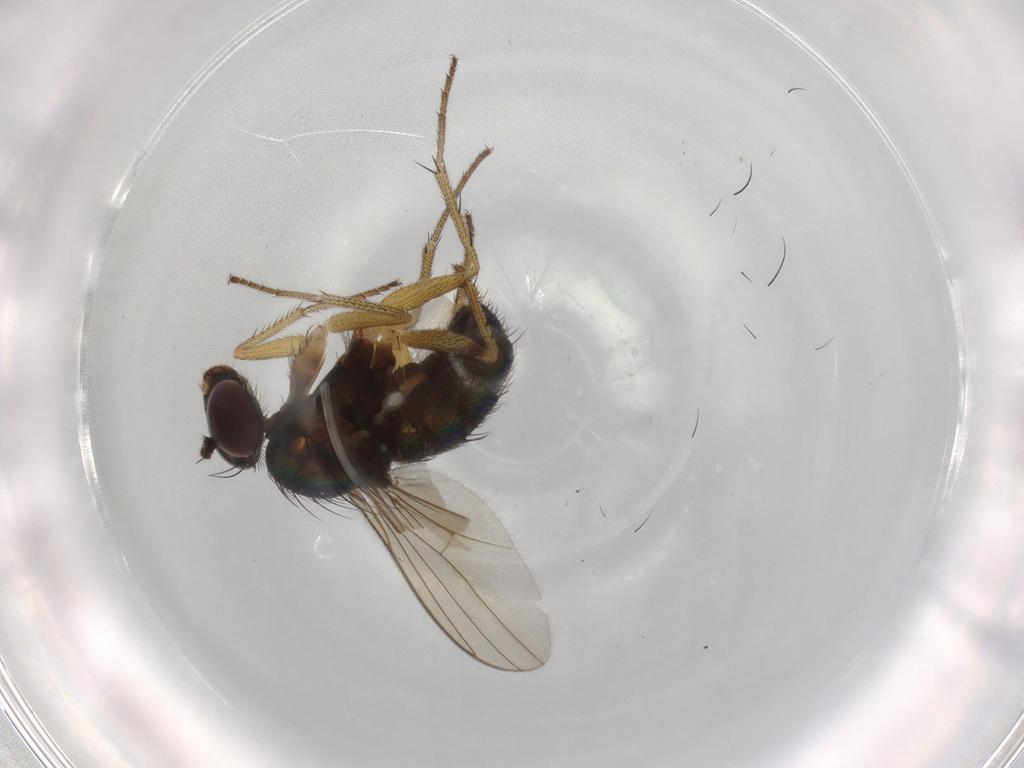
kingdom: Animalia
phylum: Arthropoda
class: Insecta
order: Diptera
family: Dolichopodidae
